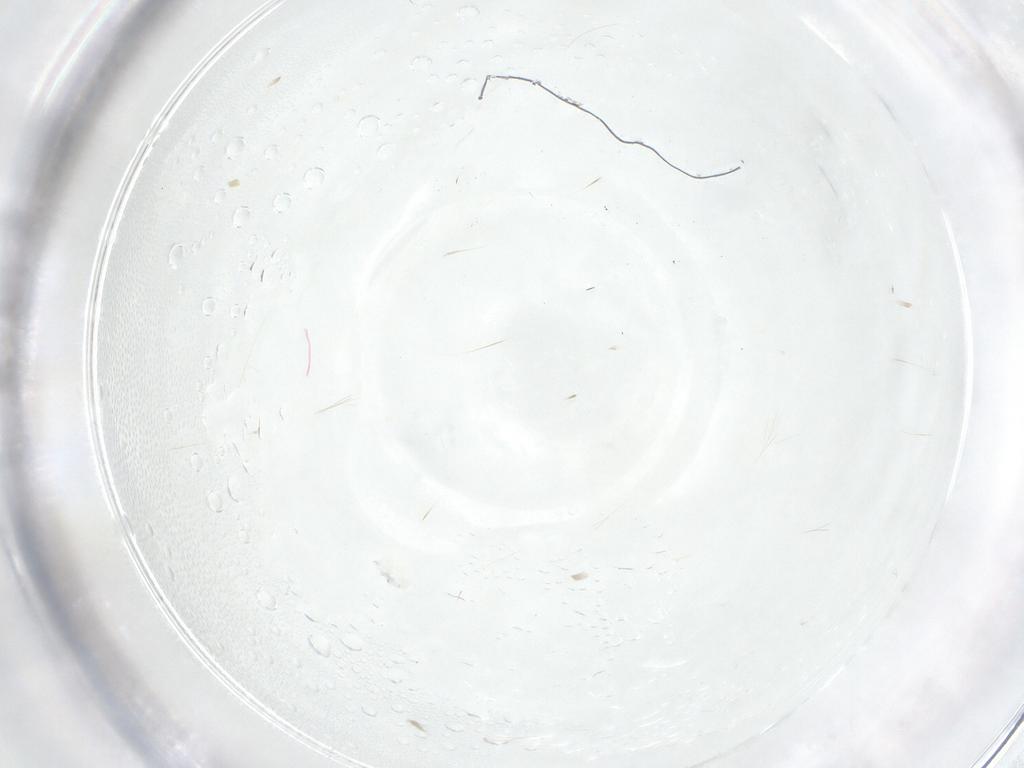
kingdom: Animalia
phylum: Arthropoda
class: Arachnida
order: Trombidiformes
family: Erythraeidae
